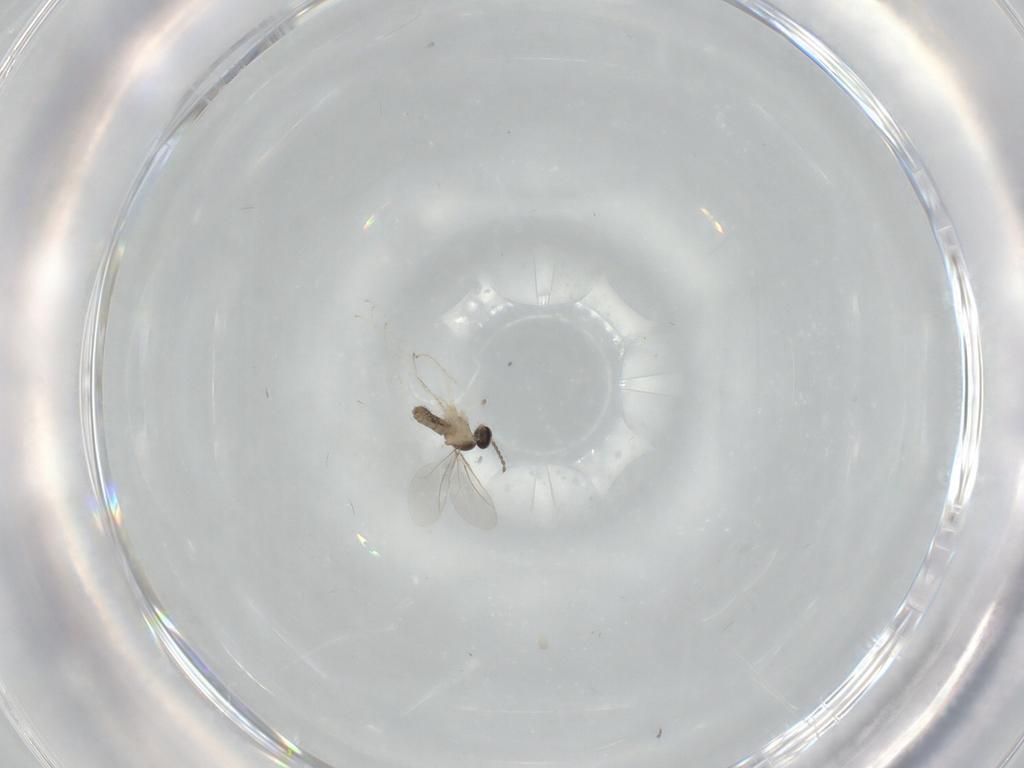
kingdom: Animalia
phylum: Arthropoda
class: Insecta
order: Diptera
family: Cecidomyiidae
